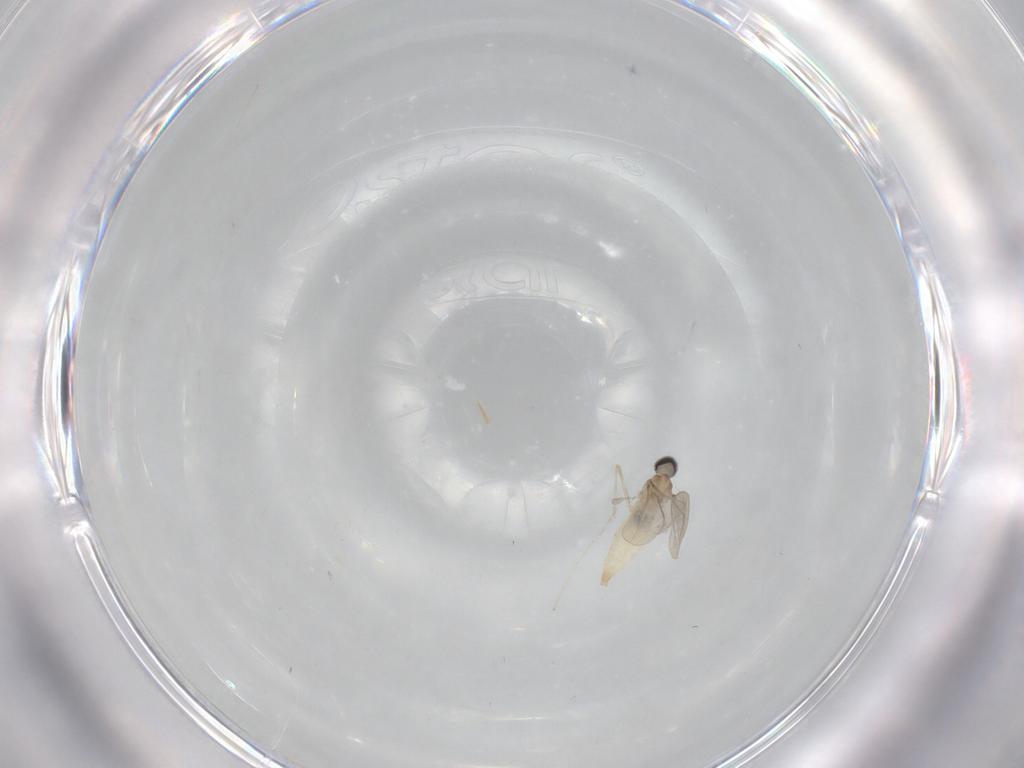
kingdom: Animalia
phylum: Arthropoda
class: Insecta
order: Diptera
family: Cecidomyiidae
